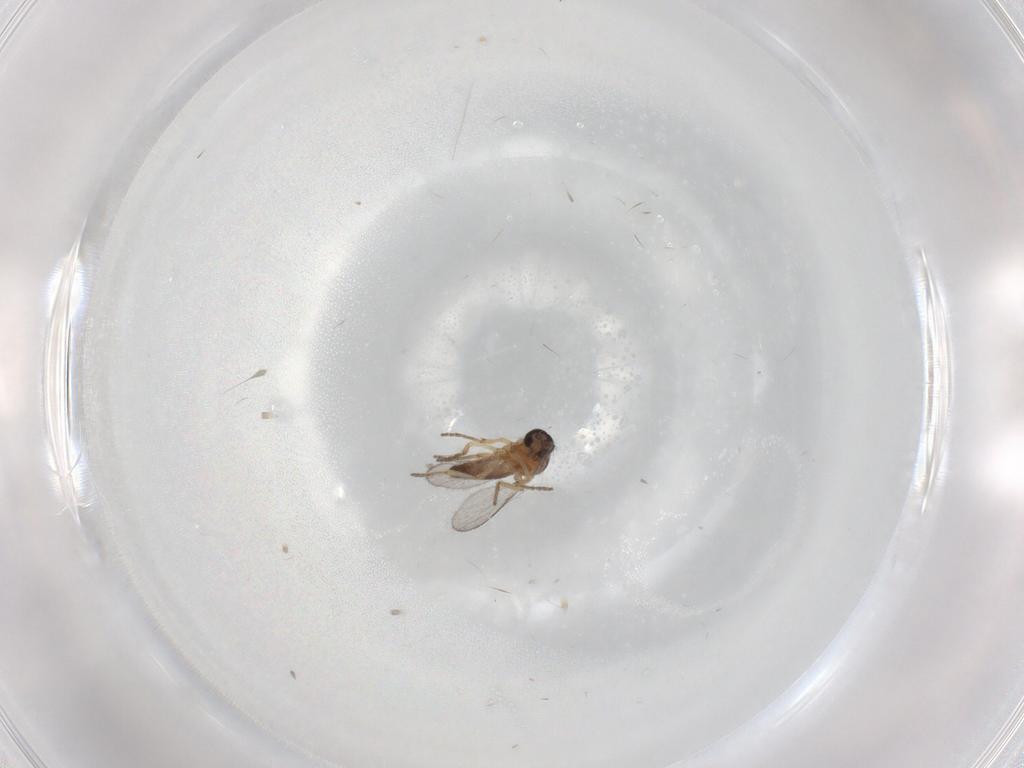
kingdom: Animalia
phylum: Arthropoda
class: Insecta
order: Diptera
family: Ceratopogonidae
